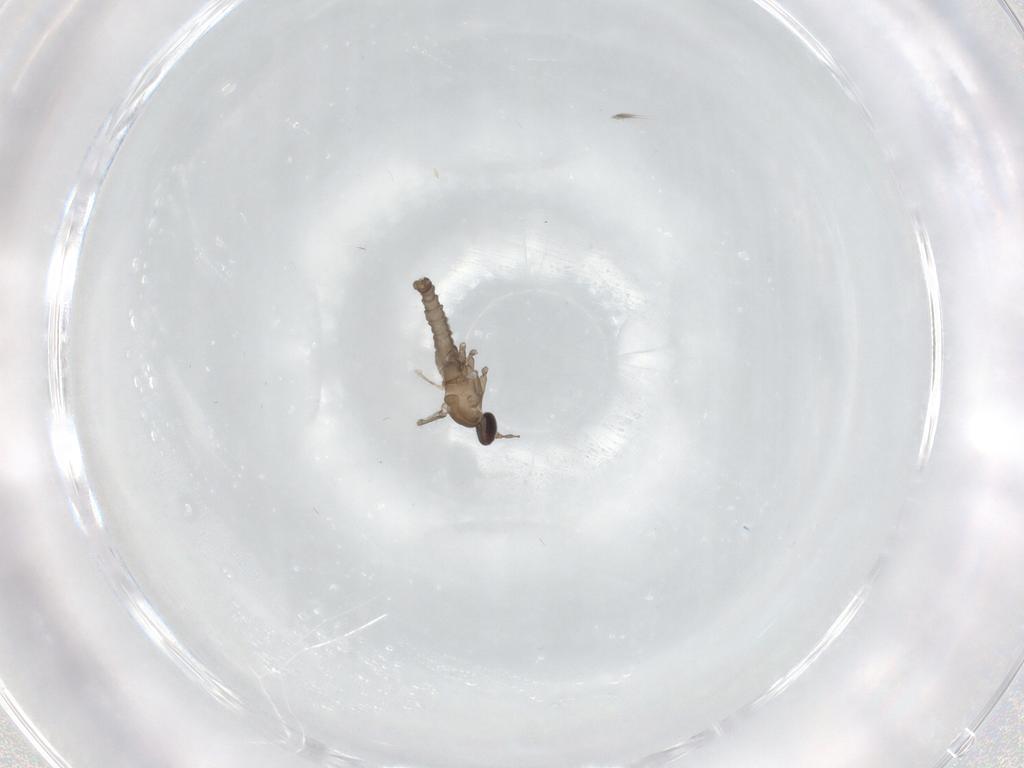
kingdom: Animalia
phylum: Arthropoda
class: Insecta
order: Diptera
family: Cecidomyiidae
